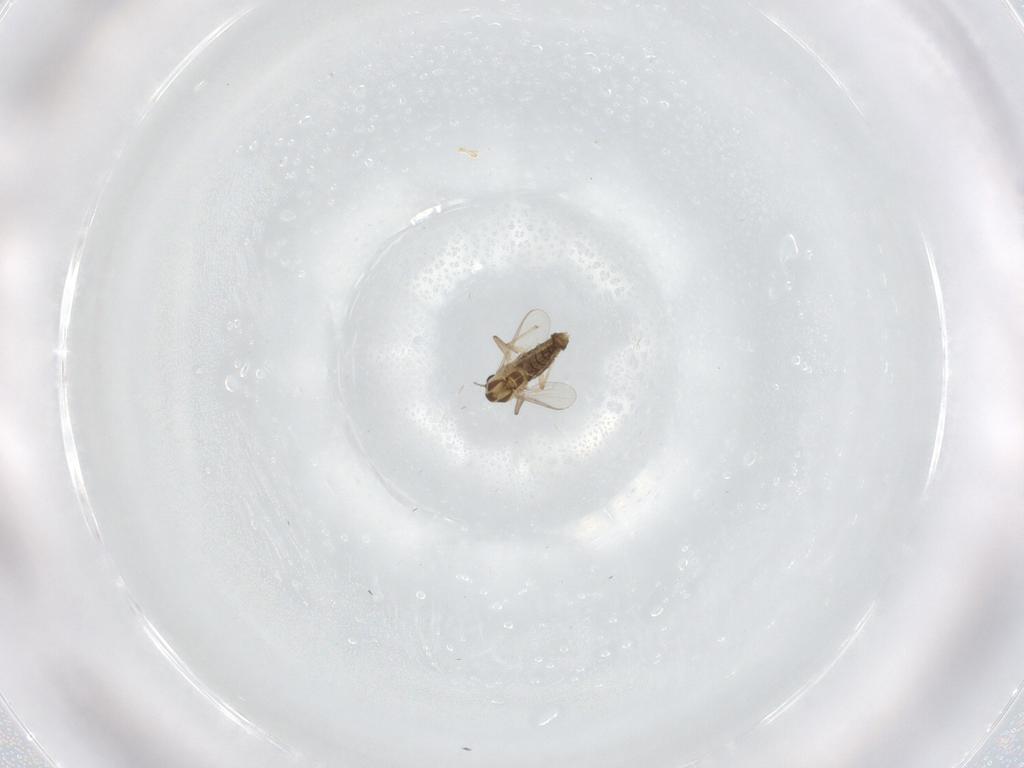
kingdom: Animalia
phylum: Arthropoda
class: Insecta
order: Diptera
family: Chironomidae
